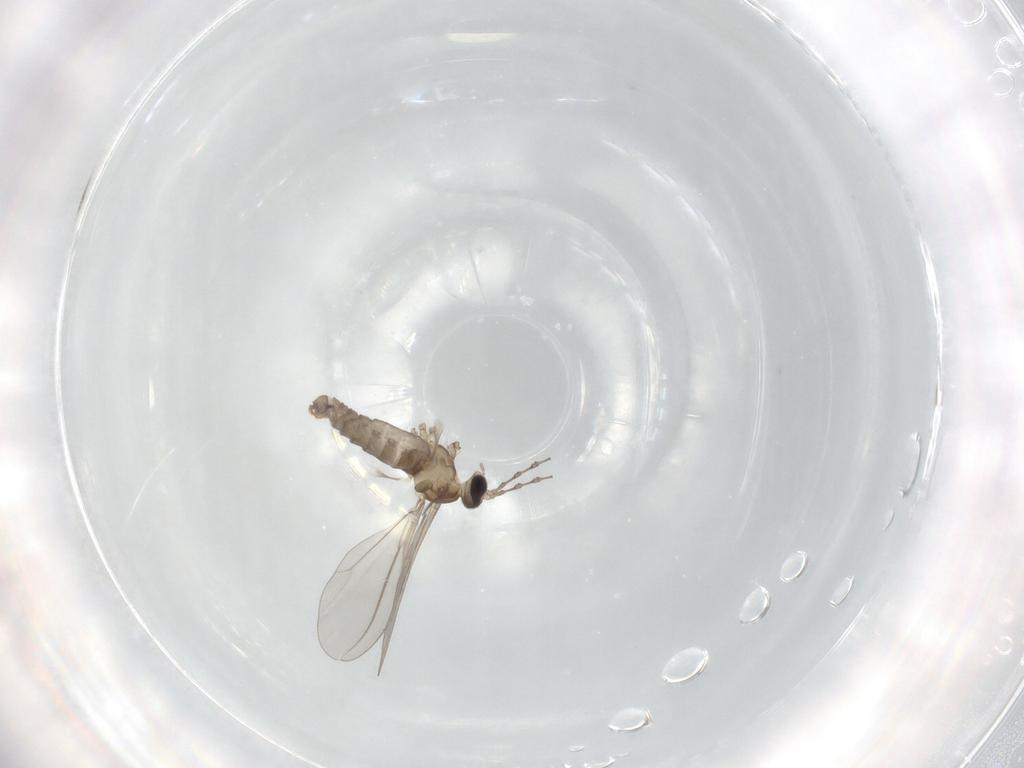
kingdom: Animalia
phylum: Arthropoda
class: Insecta
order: Diptera
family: Cecidomyiidae
